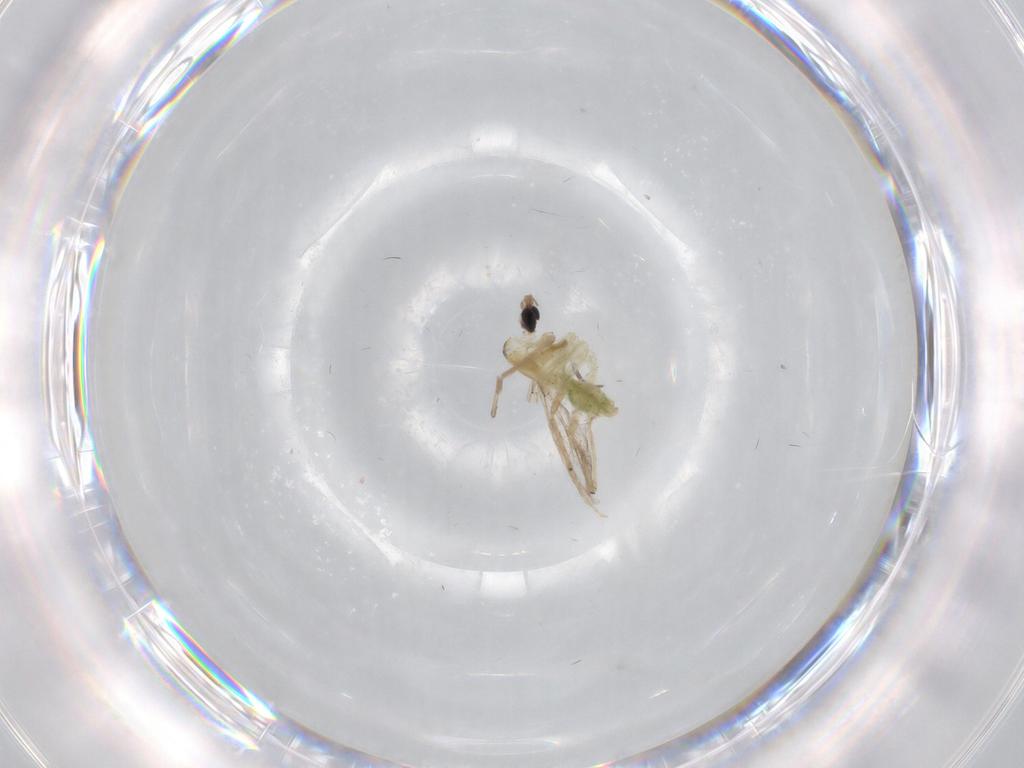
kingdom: Animalia
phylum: Arthropoda
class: Insecta
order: Diptera
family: Chironomidae
